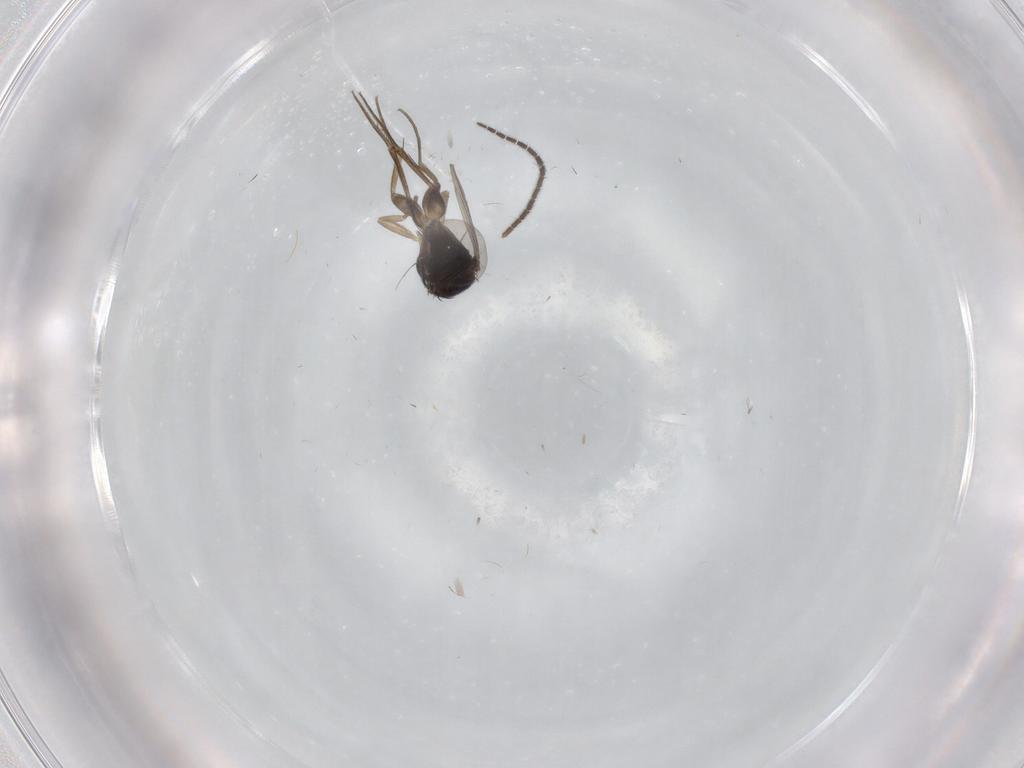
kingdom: Animalia
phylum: Arthropoda
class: Insecta
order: Diptera
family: Phoridae
